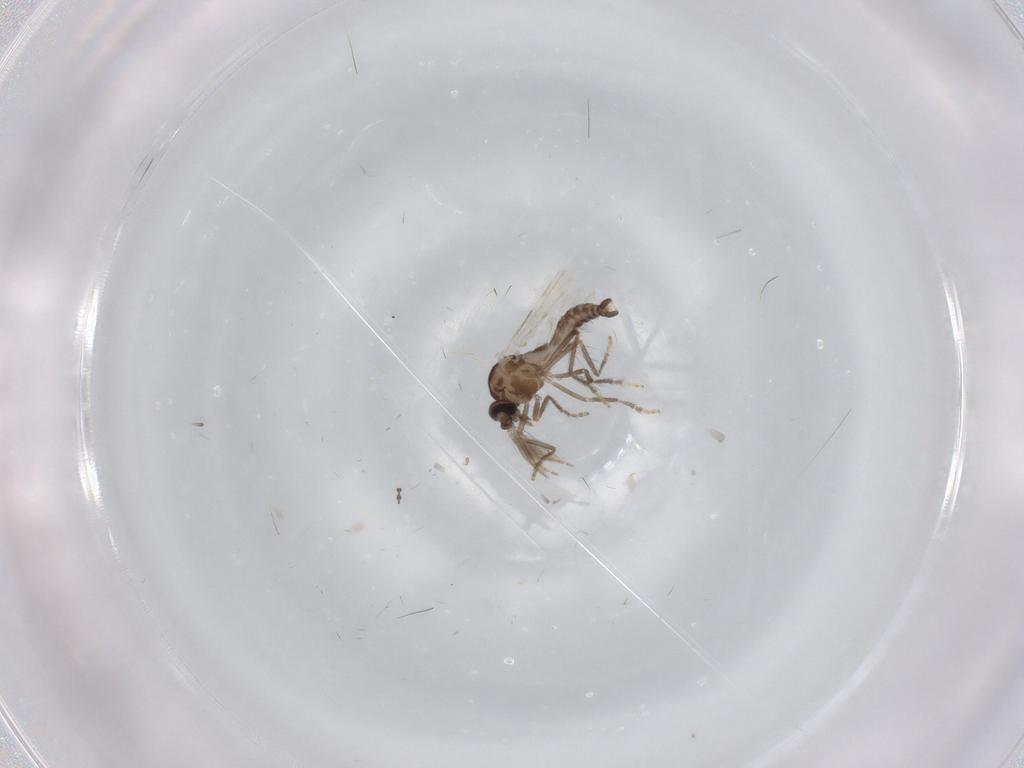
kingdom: Animalia
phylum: Arthropoda
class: Insecta
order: Diptera
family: Ceratopogonidae
